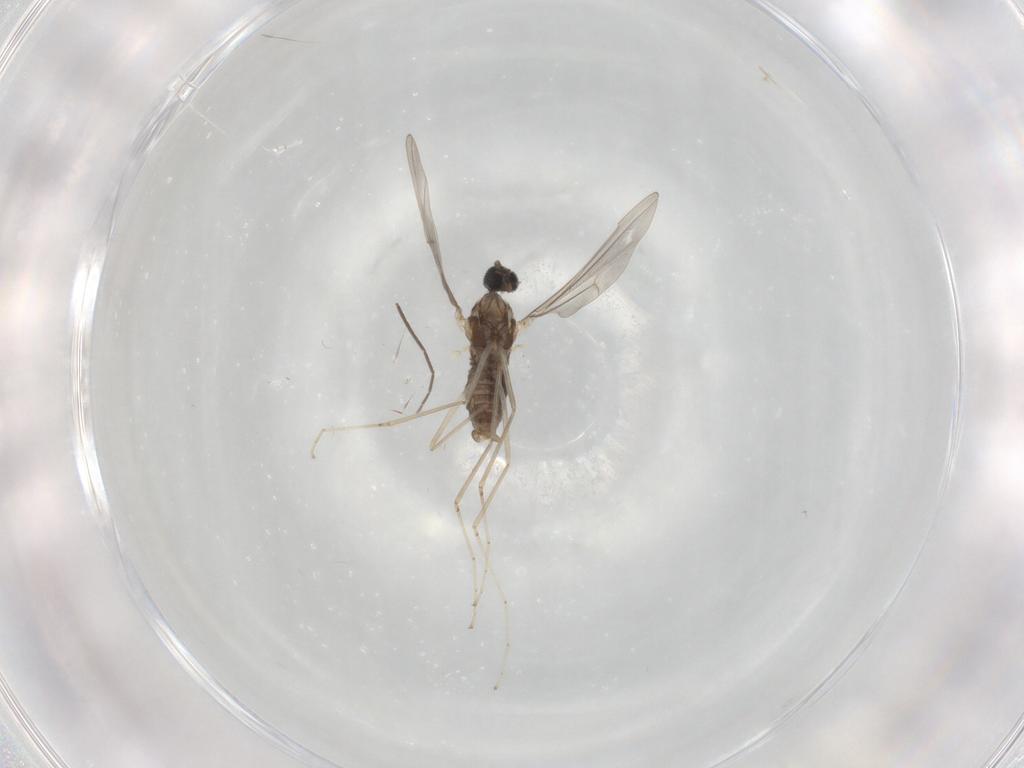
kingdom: Animalia
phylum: Arthropoda
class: Insecta
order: Diptera
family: Cecidomyiidae
